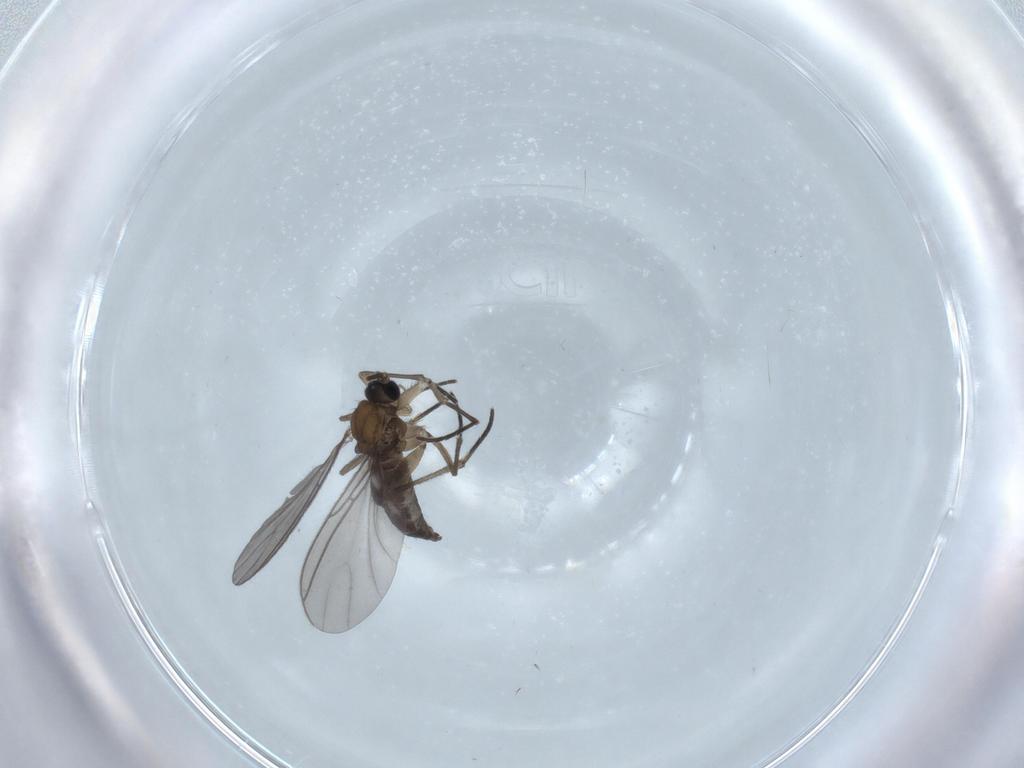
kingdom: Animalia
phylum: Arthropoda
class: Insecta
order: Diptera
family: Sciaridae
